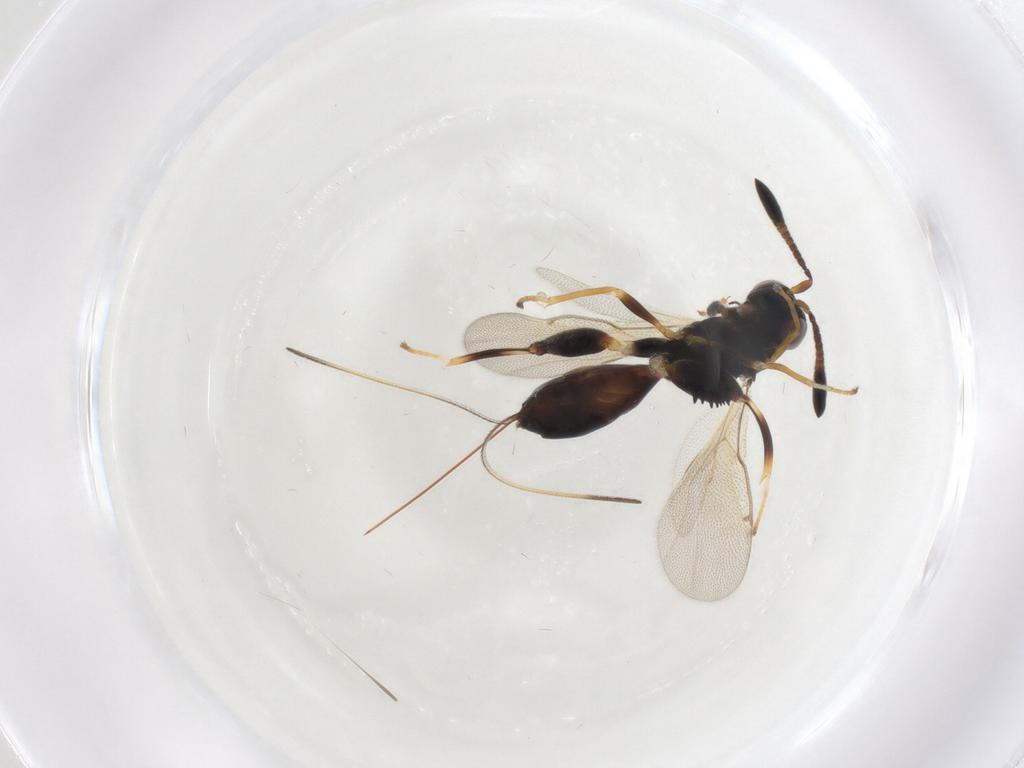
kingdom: Animalia
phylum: Arthropoda
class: Insecta
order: Diptera
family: Cecidomyiidae
